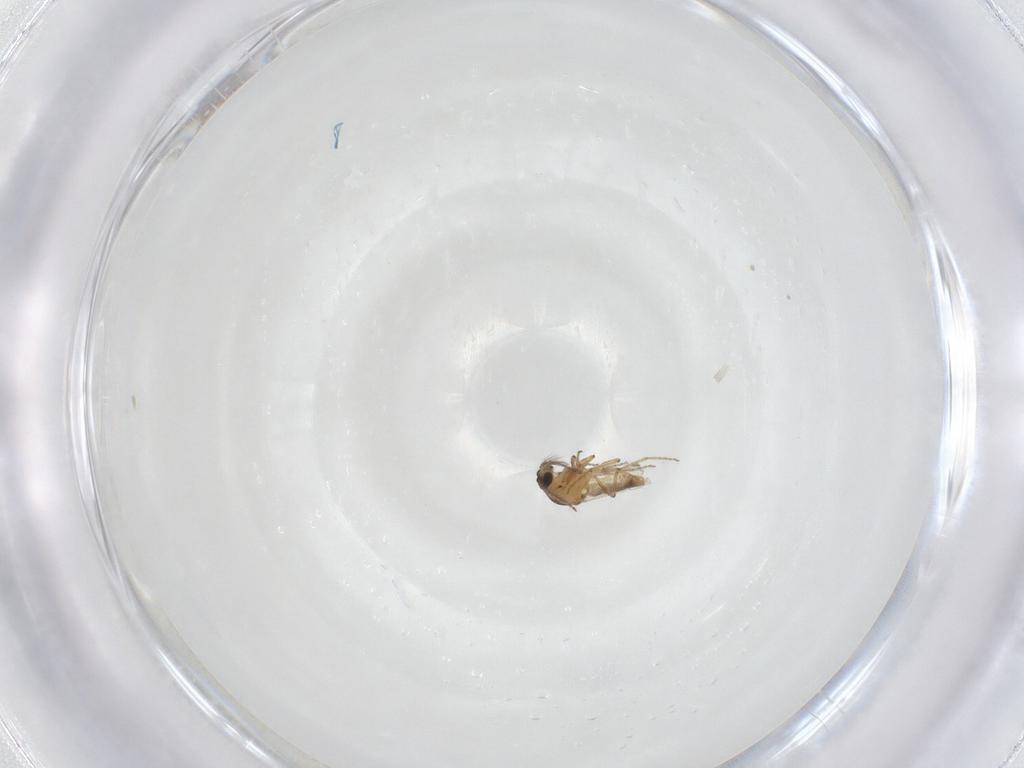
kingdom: Animalia
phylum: Arthropoda
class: Insecta
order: Diptera
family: Ceratopogonidae
